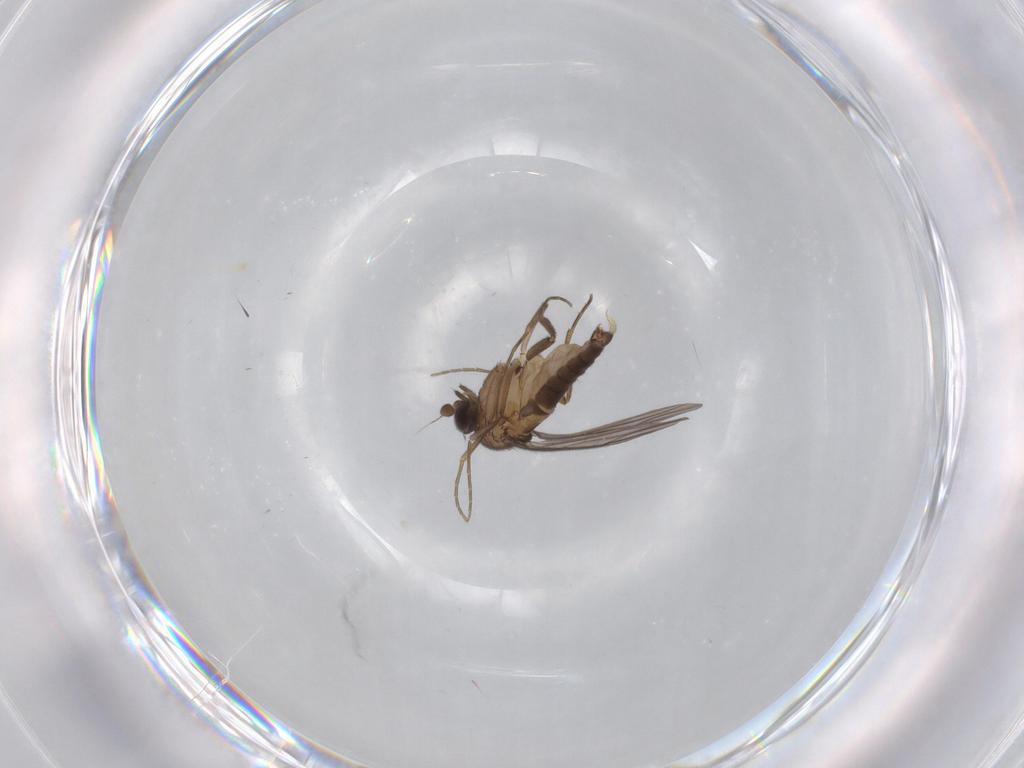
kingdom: Animalia
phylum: Arthropoda
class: Insecta
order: Diptera
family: Phoridae
